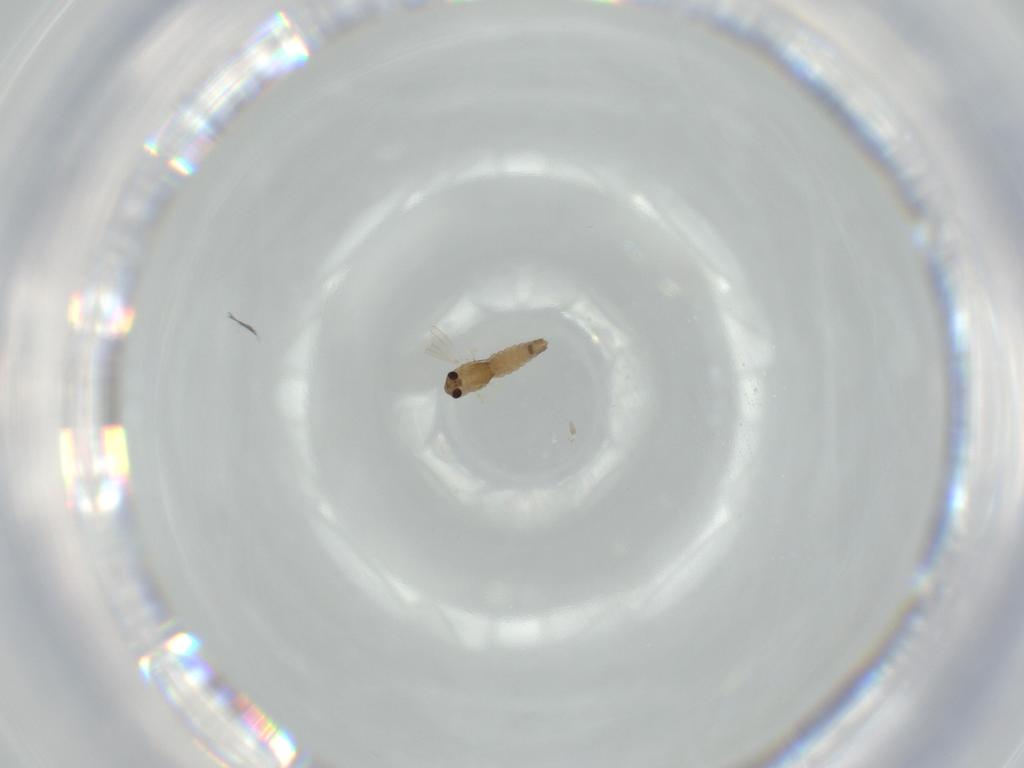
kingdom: Animalia
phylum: Arthropoda
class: Insecta
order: Diptera
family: Chironomidae
